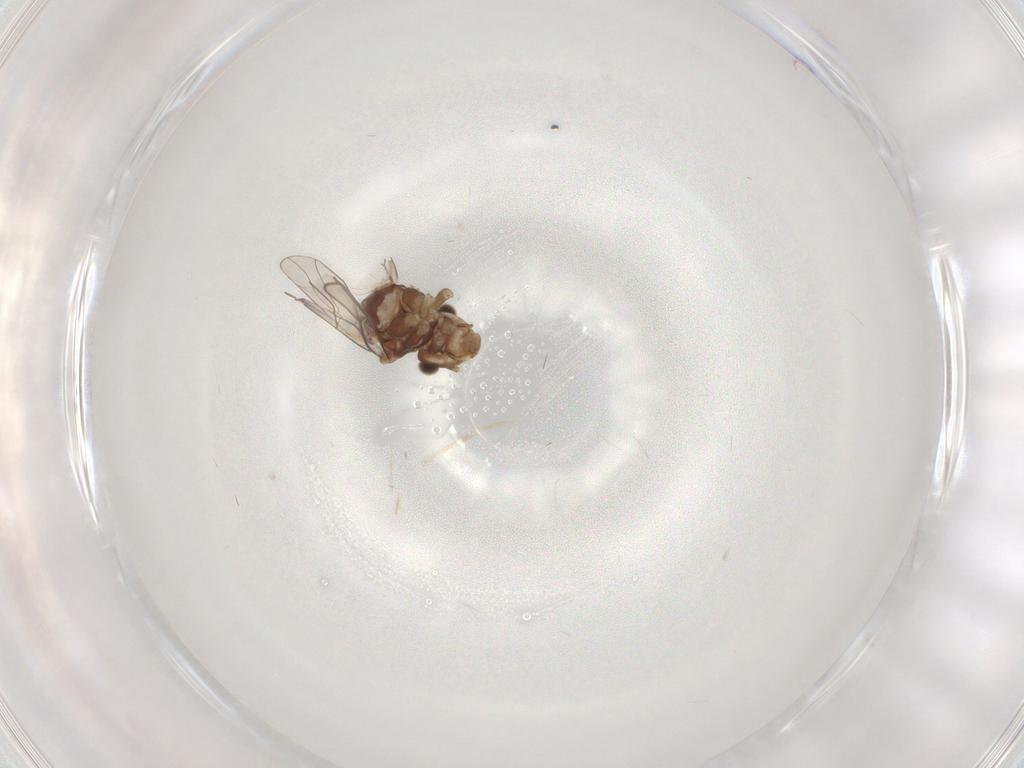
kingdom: Animalia
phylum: Arthropoda
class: Insecta
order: Psocodea
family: Lachesillidae
